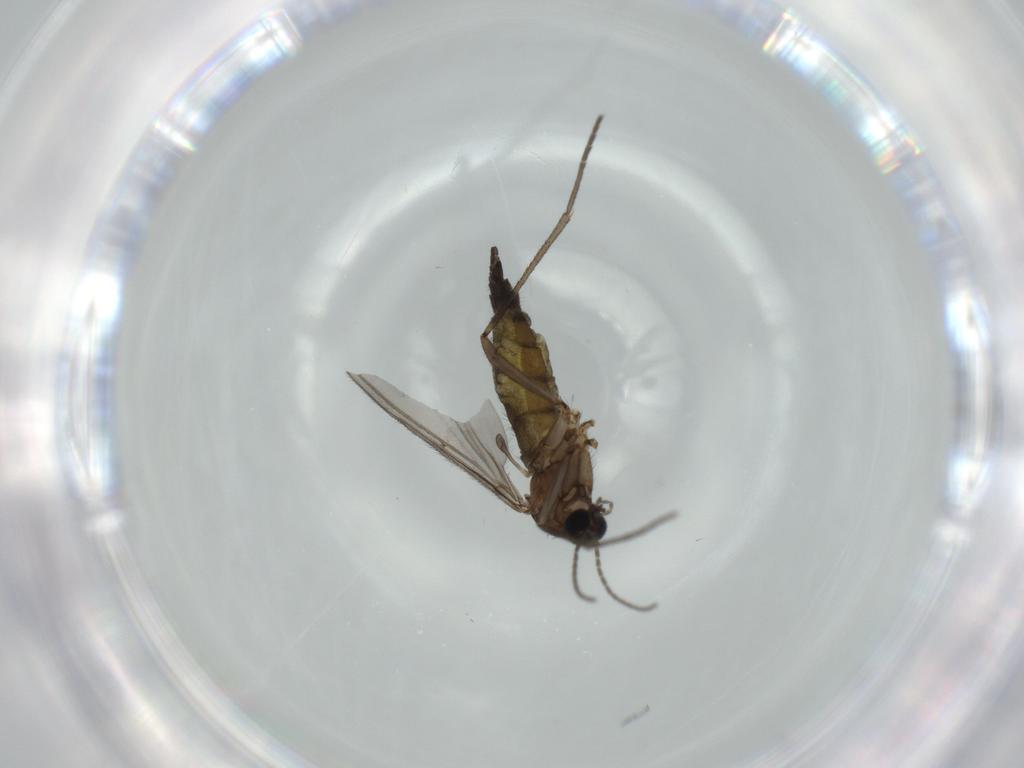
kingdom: Animalia
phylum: Arthropoda
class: Insecta
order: Diptera
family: Sciaridae
